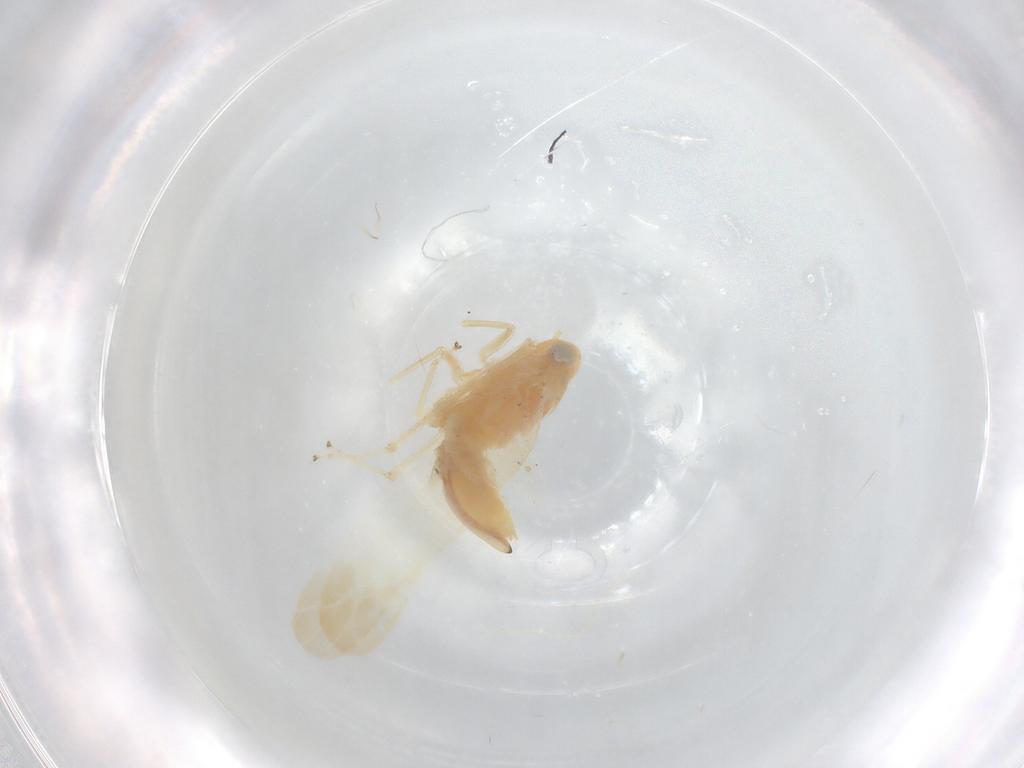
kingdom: Animalia
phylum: Arthropoda
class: Insecta
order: Hemiptera
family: Cicadellidae
